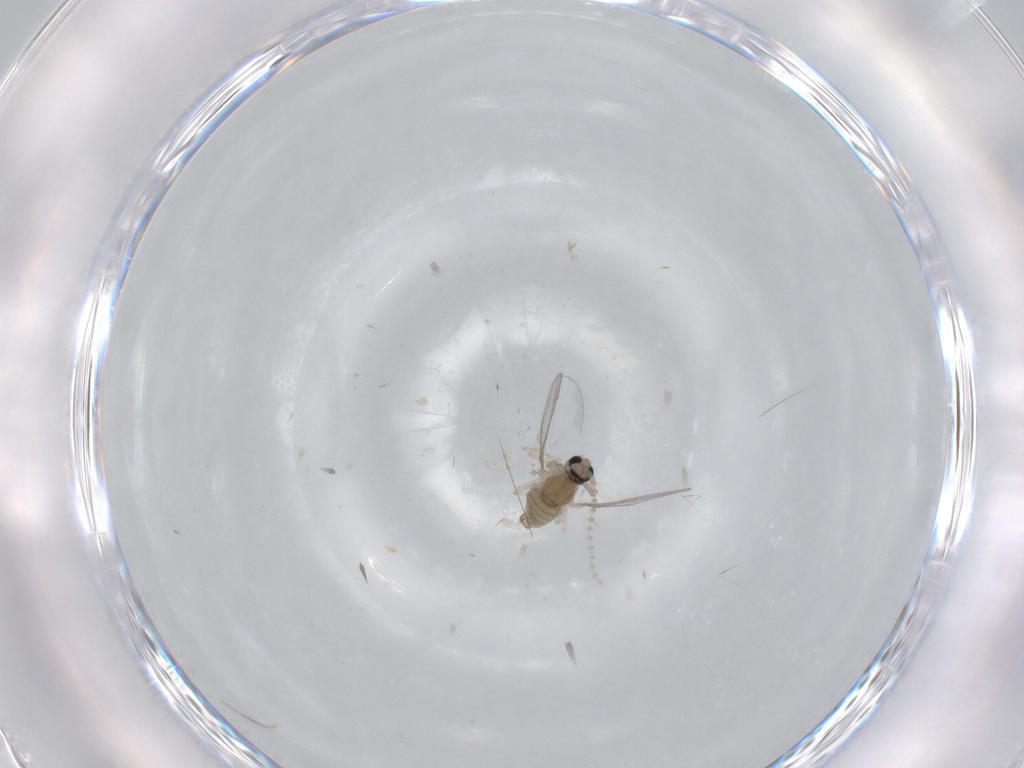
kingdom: Animalia
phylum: Arthropoda
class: Insecta
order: Diptera
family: Cecidomyiidae
